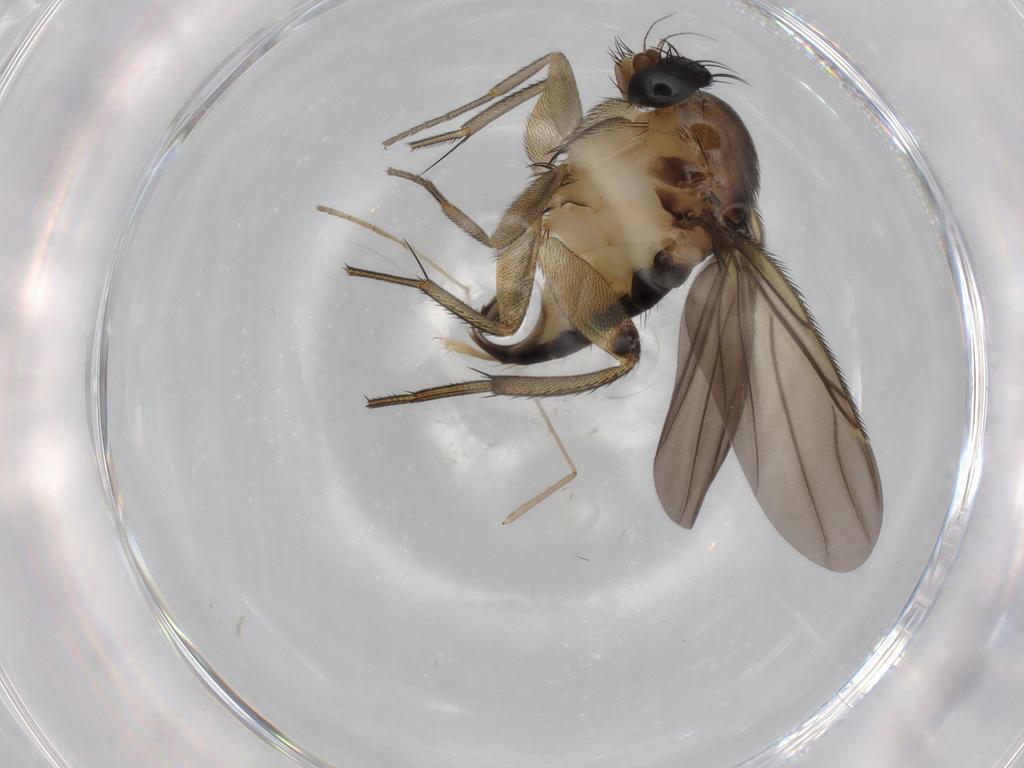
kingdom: Animalia
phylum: Arthropoda
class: Insecta
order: Diptera
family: Phoridae
